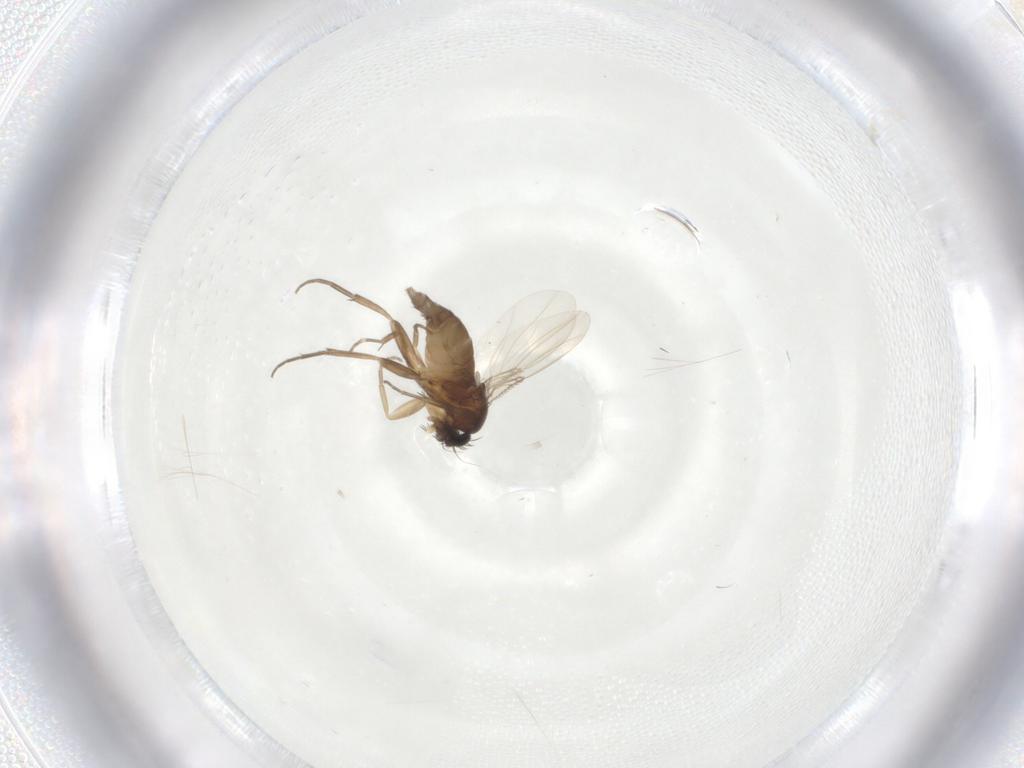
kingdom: Animalia
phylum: Arthropoda
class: Insecta
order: Diptera
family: Phoridae
